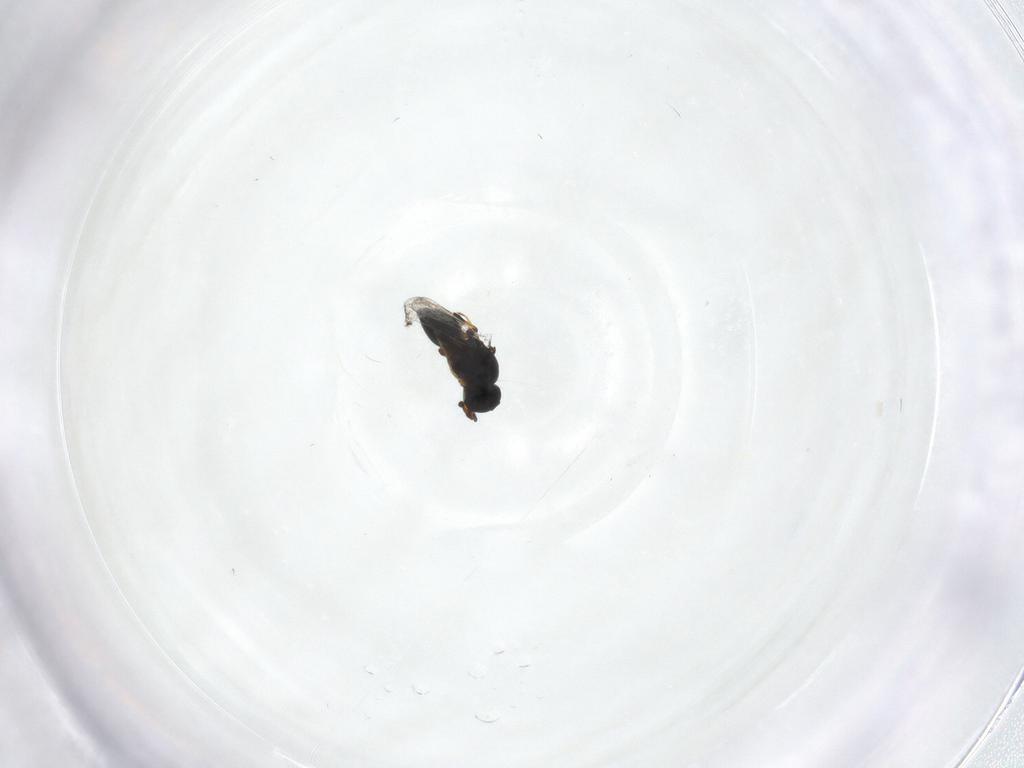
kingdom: Animalia
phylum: Arthropoda
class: Insecta
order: Hymenoptera
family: Platygastridae
